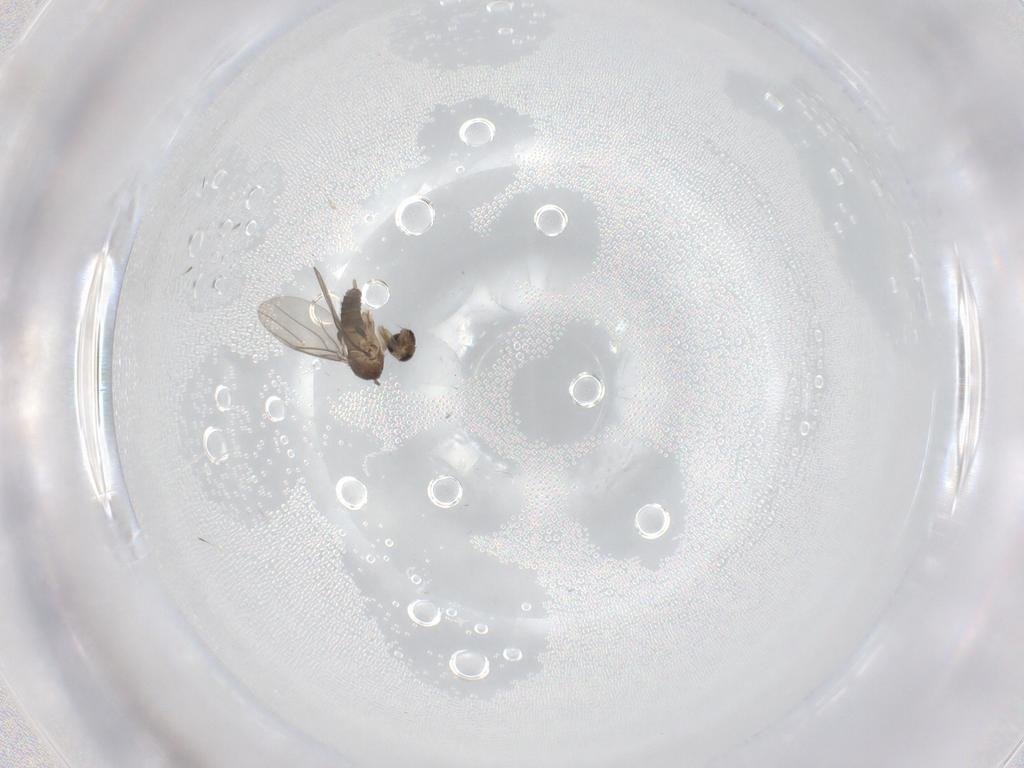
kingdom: Animalia
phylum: Arthropoda
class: Insecta
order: Diptera
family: Phoridae
